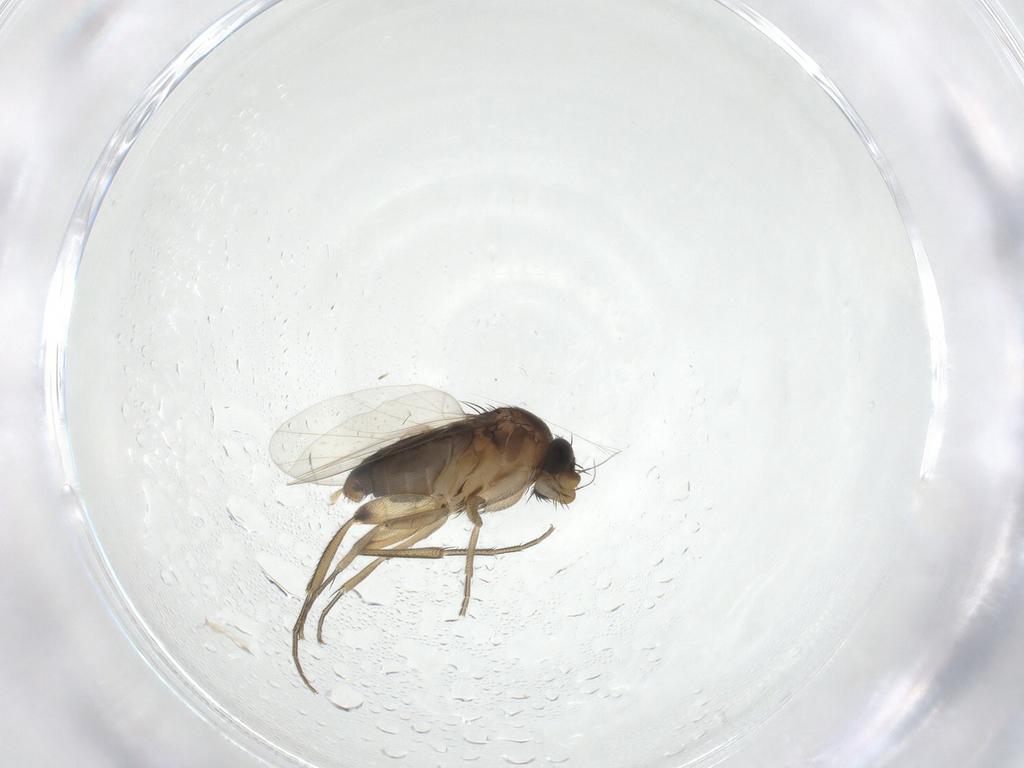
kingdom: Animalia
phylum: Arthropoda
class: Insecta
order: Diptera
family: Phoridae
